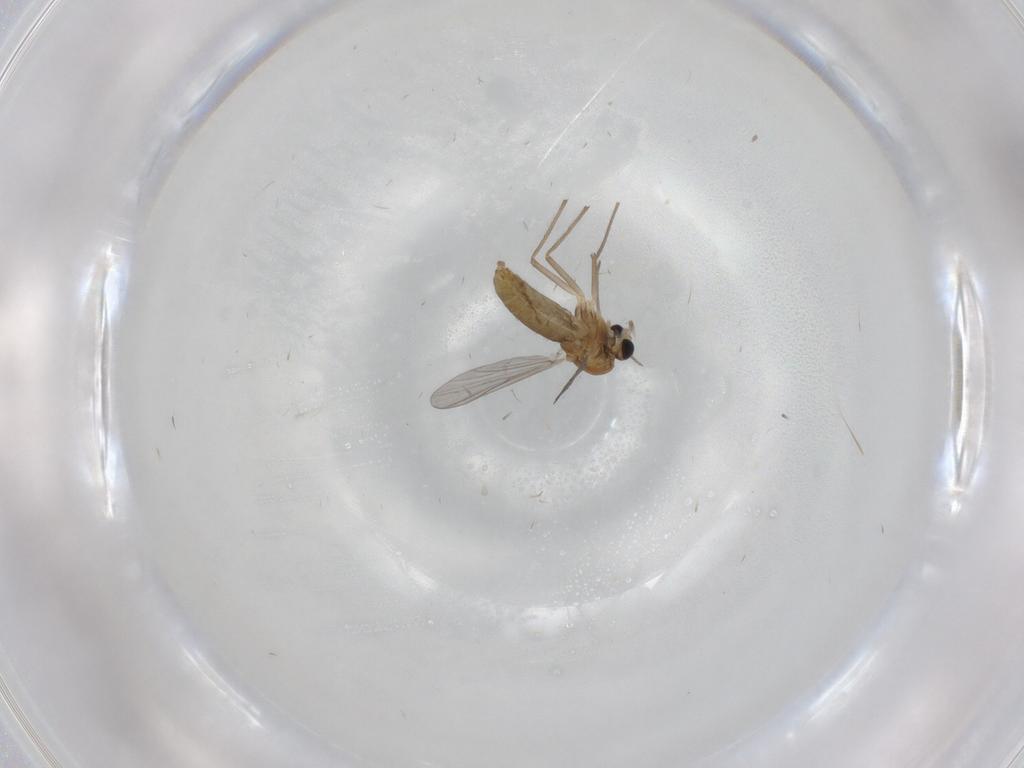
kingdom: Animalia
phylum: Arthropoda
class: Insecta
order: Diptera
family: Chironomidae
